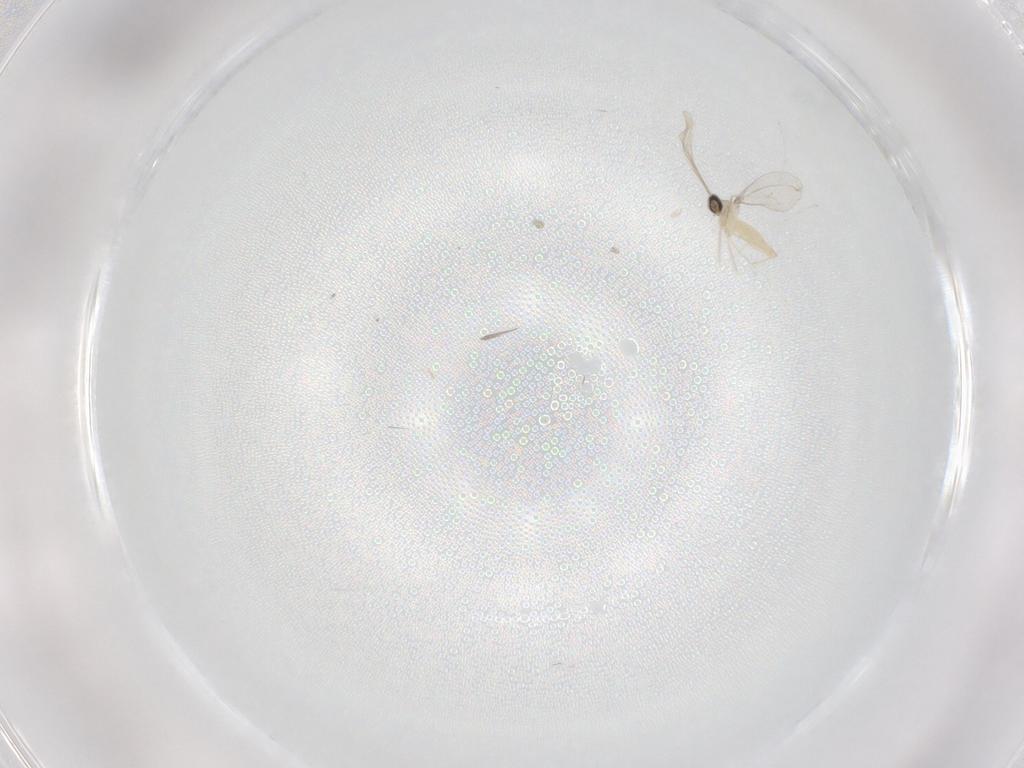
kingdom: Animalia
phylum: Arthropoda
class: Insecta
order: Diptera
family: Cecidomyiidae
